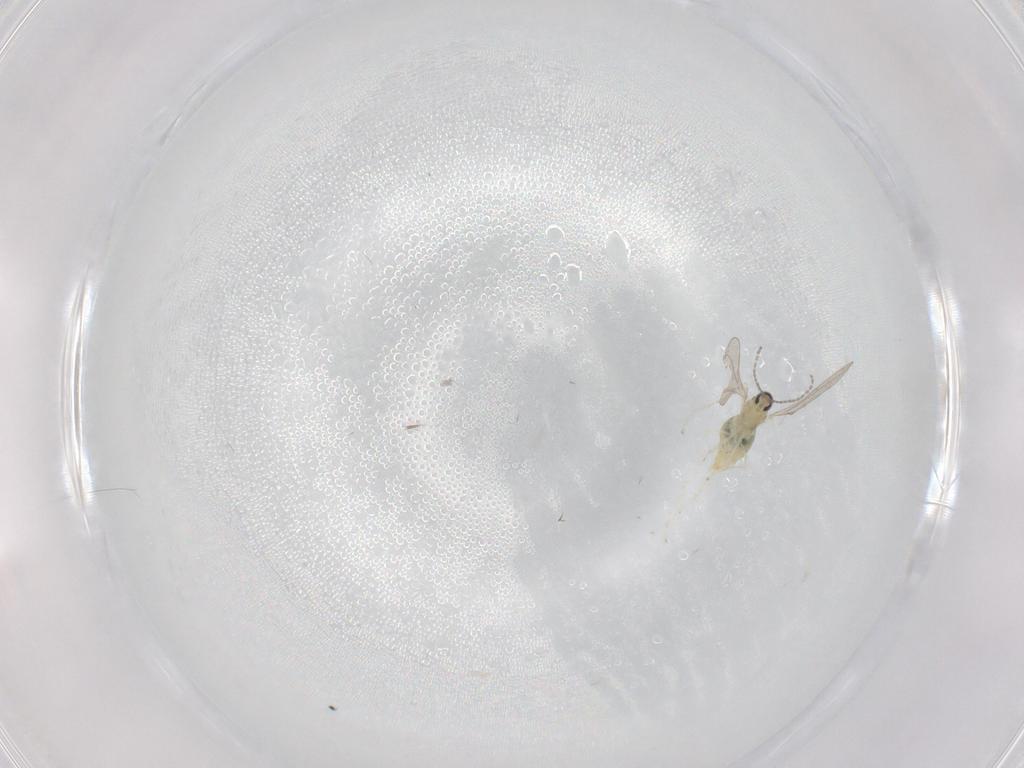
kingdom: Animalia
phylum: Arthropoda
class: Insecta
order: Diptera
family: Cecidomyiidae
